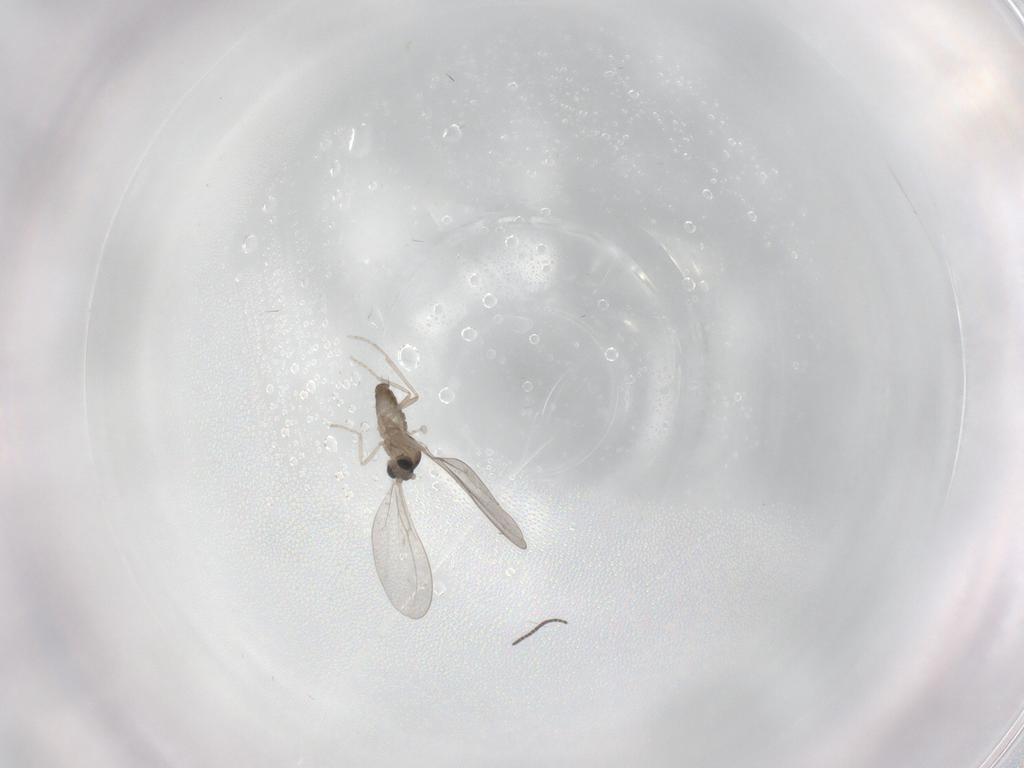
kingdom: Animalia
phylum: Arthropoda
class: Insecta
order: Diptera
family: Cecidomyiidae
